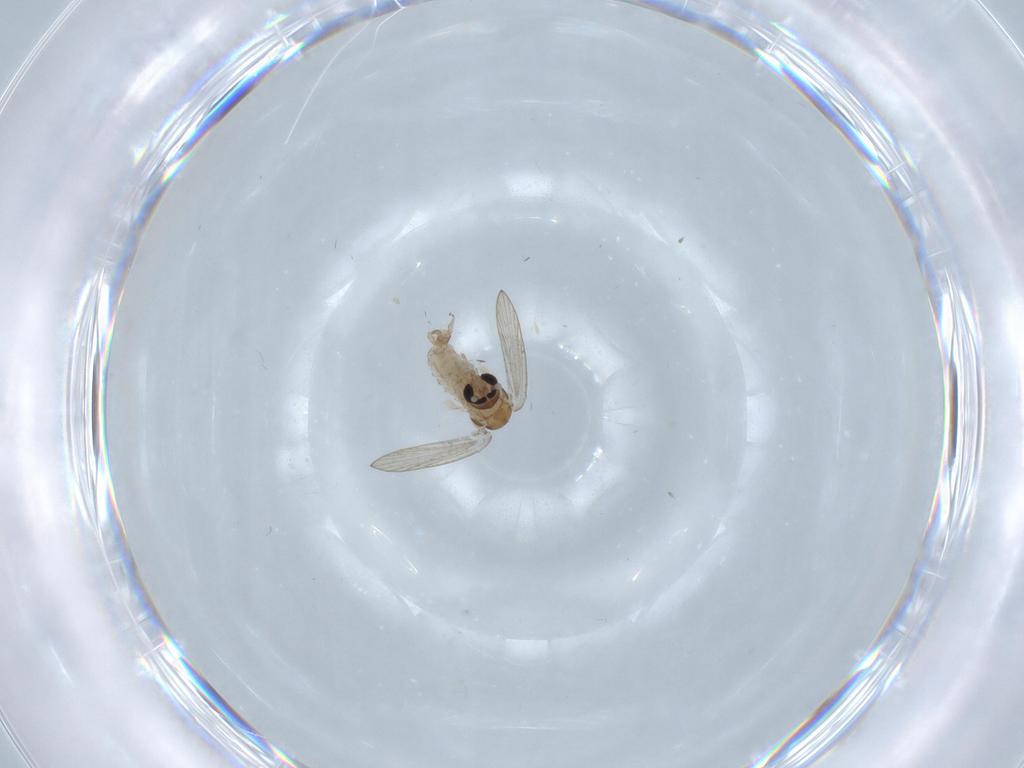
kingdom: Animalia
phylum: Arthropoda
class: Insecta
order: Diptera
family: Psychodidae
